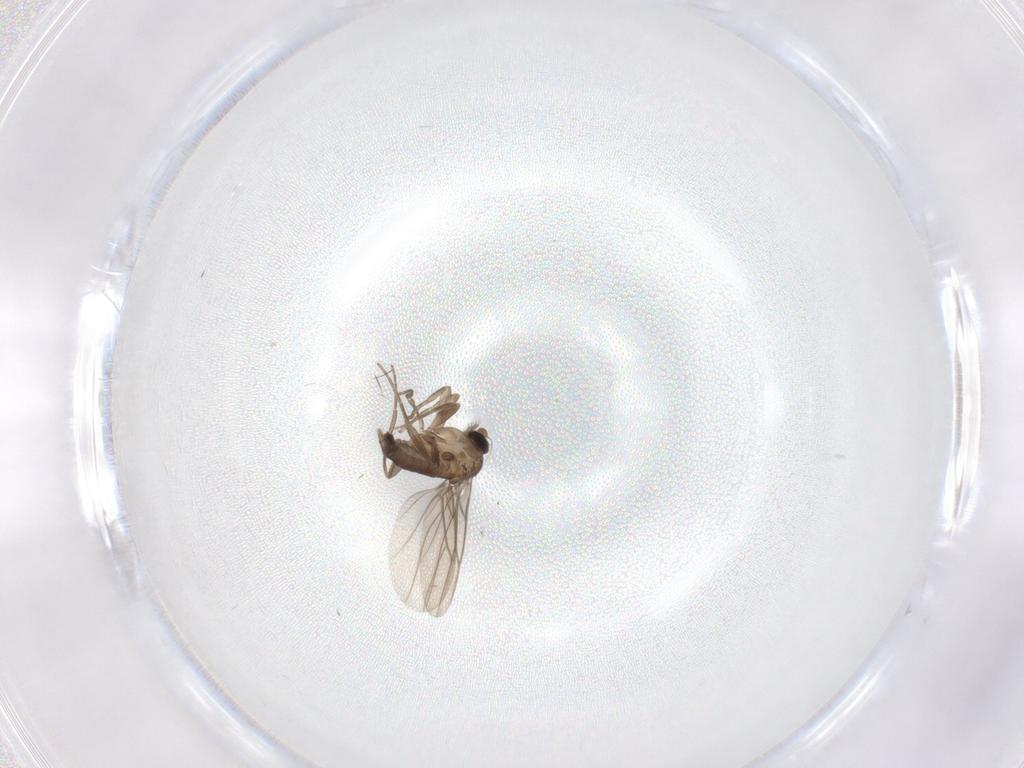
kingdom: Animalia
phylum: Arthropoda
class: Insecta
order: Diptera
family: Phoridae
